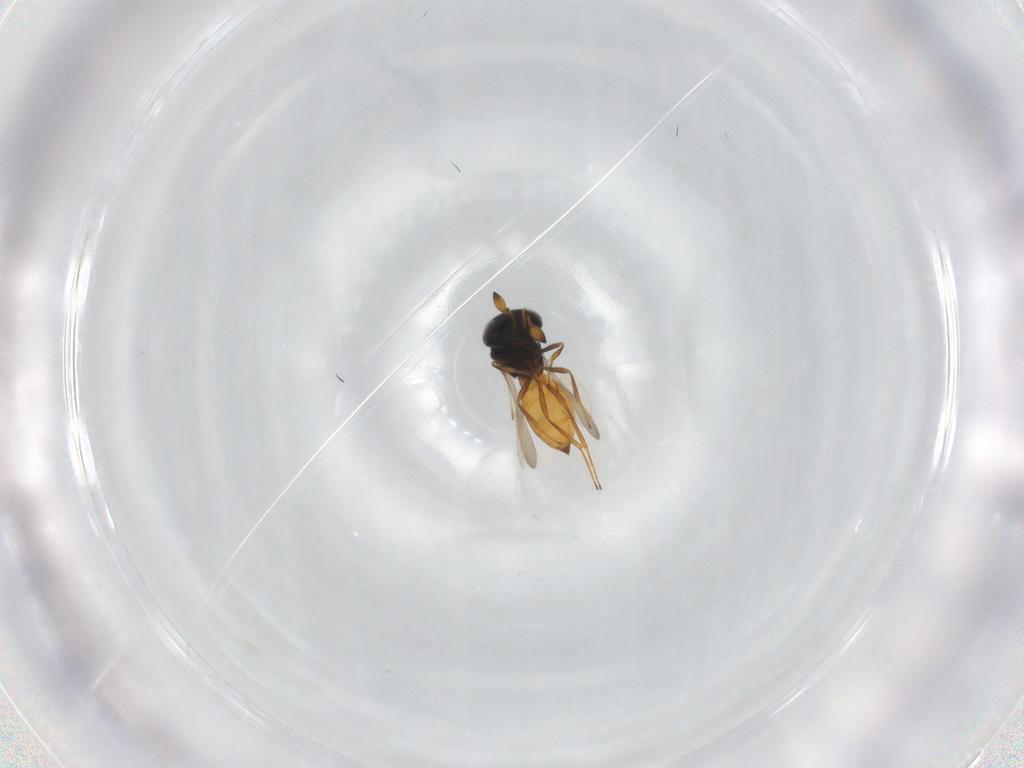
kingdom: Animalia
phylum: Arthropoda
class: Insecta
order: Hymenoptera
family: Scelionidae
